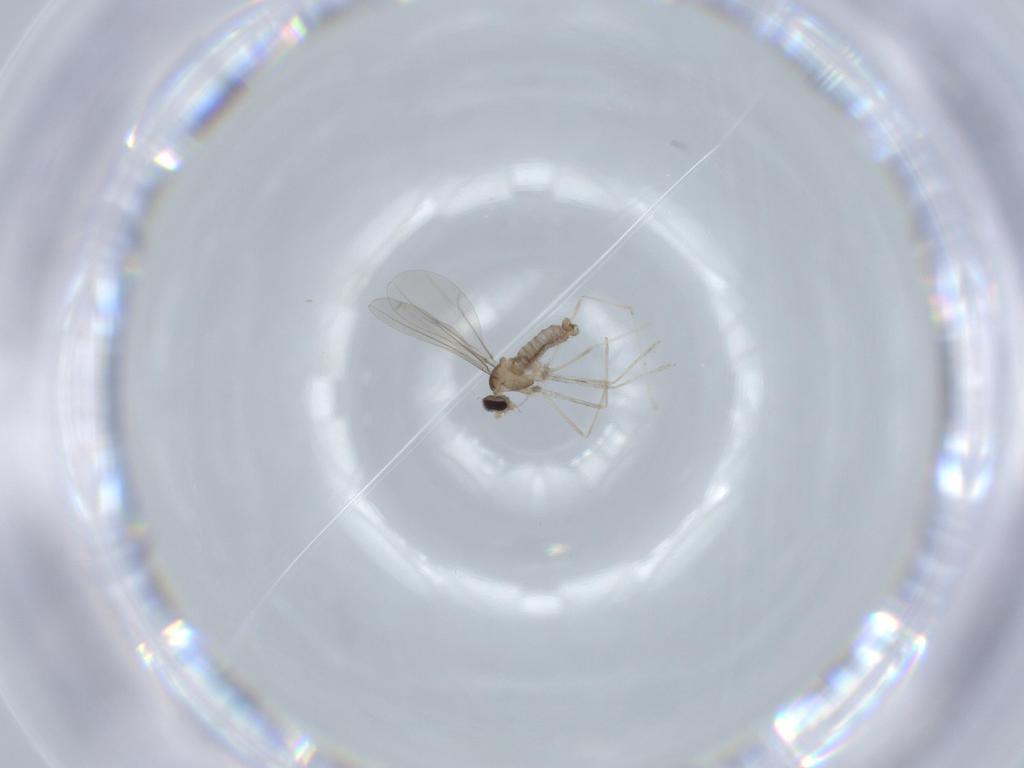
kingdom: Animalia
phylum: Arthropoda
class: Insecta
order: Diptera
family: Cecidomyiidae
